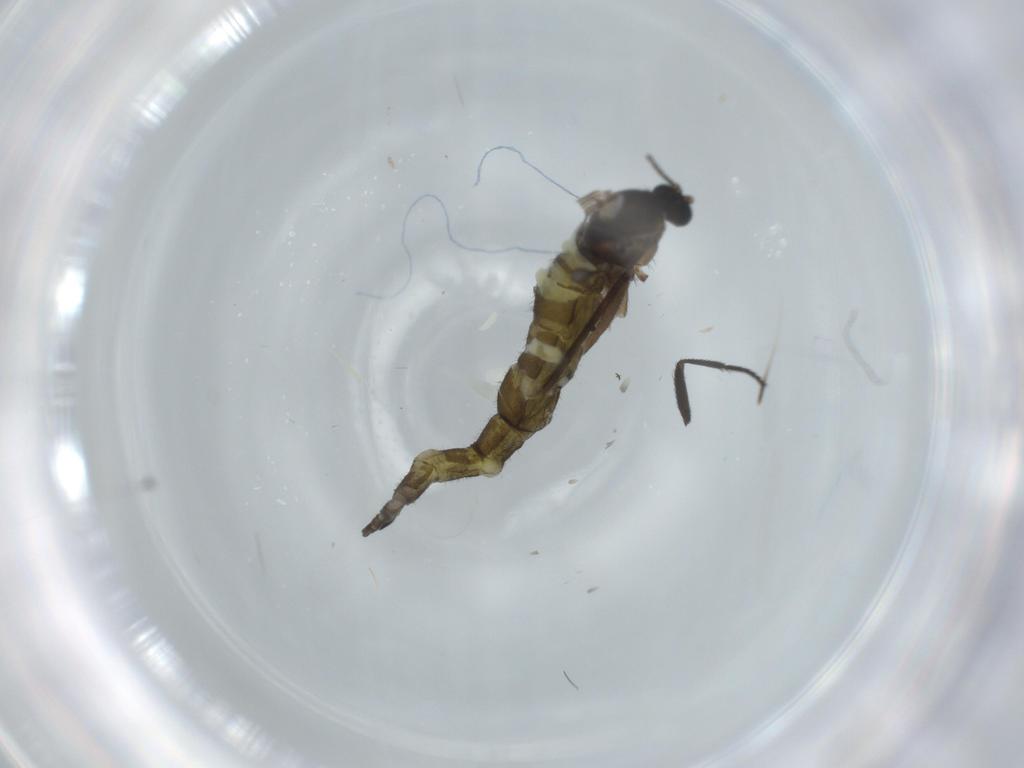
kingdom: Animalia
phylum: Arthropoda
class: Insecta
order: Diptera
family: Sciaridae
